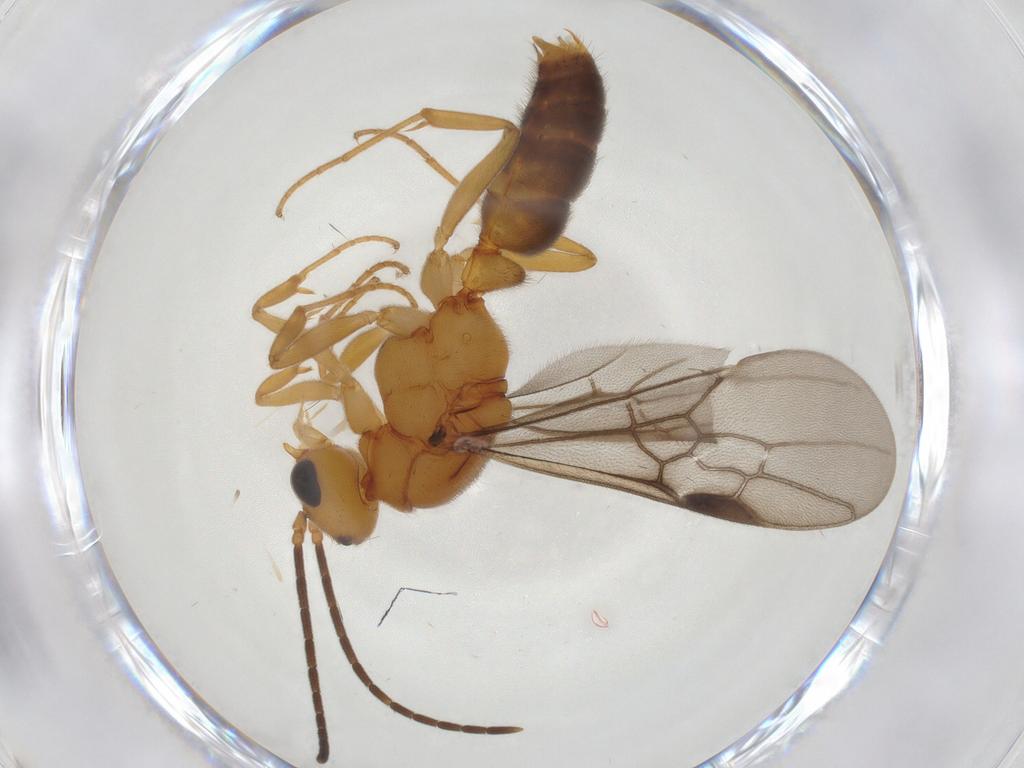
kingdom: Animalia
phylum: Arthropoda
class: Insecta
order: Hymenoptera
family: Formicidae
